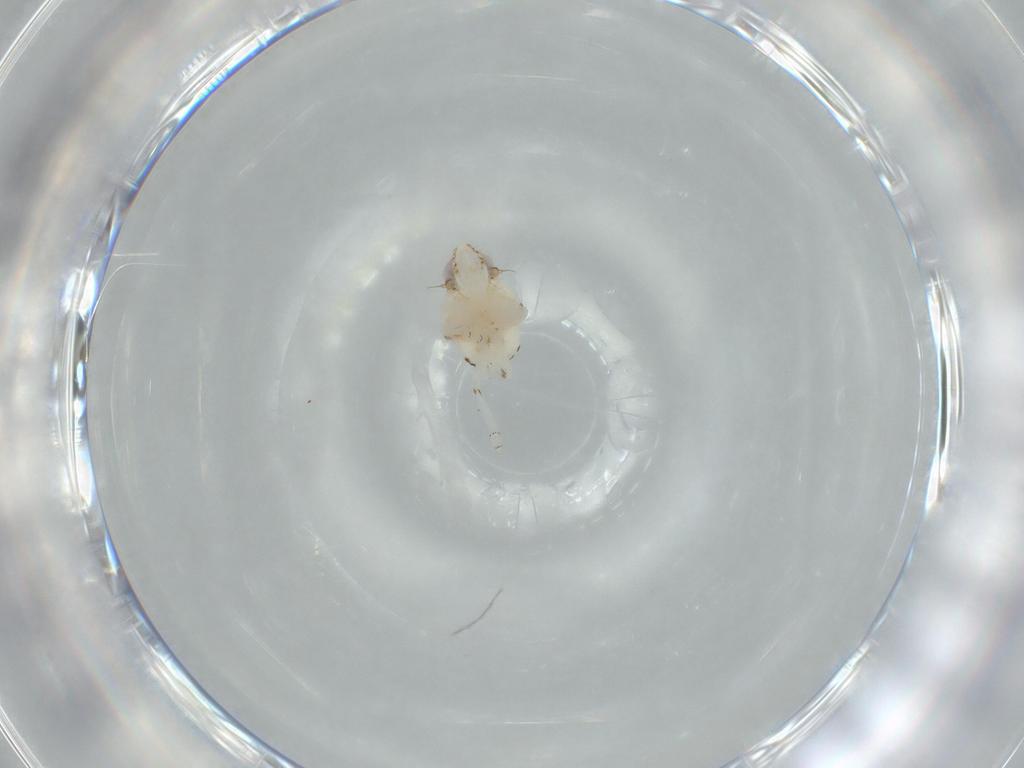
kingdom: Animalia
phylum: Arthropoda
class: Insecta
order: Hemiptera
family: Nogodinidae
